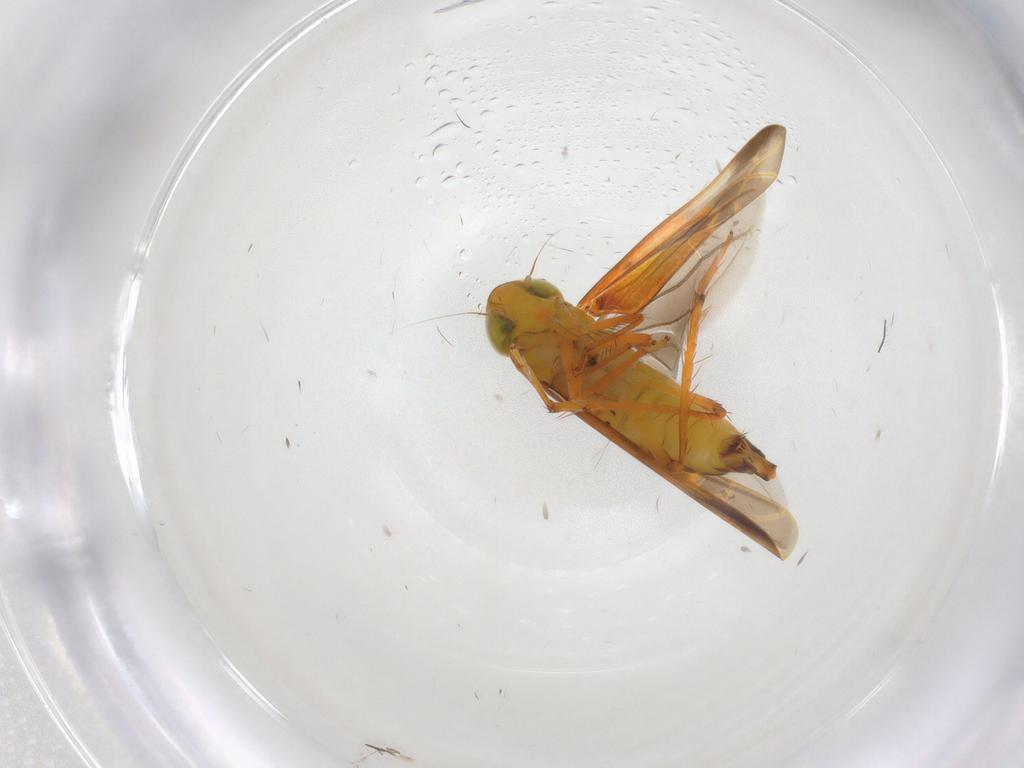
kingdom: Animalia
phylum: Arthropoda
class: Insecta
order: Hemiptera
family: Cicadellidae
